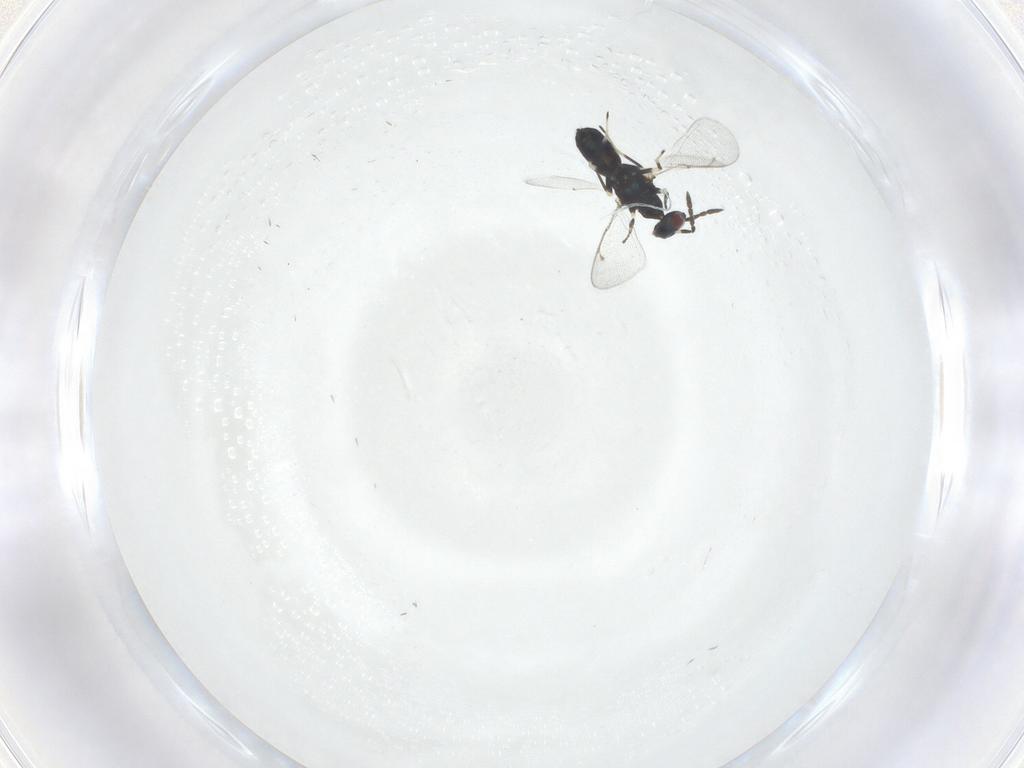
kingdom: Animalia
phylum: Arthropoda
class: Insecta
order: Hymenoptera
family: Eulophidae
